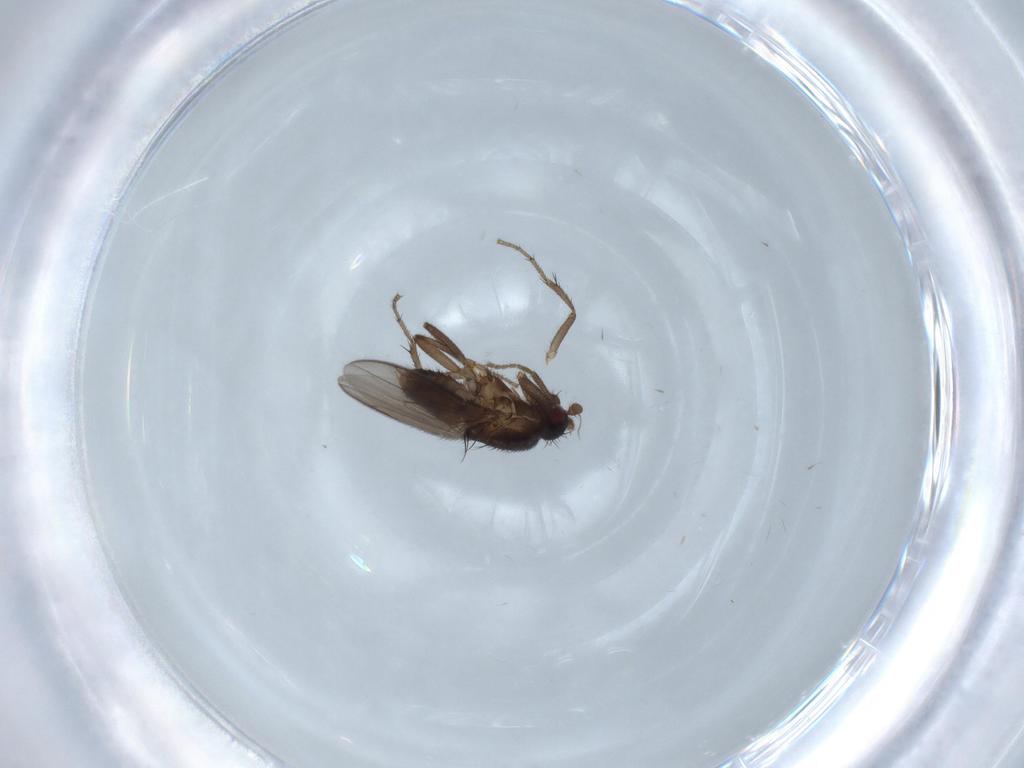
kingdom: Animalia
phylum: Arthropoda
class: Insecta
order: Diptera
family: Sphaeroceridae
